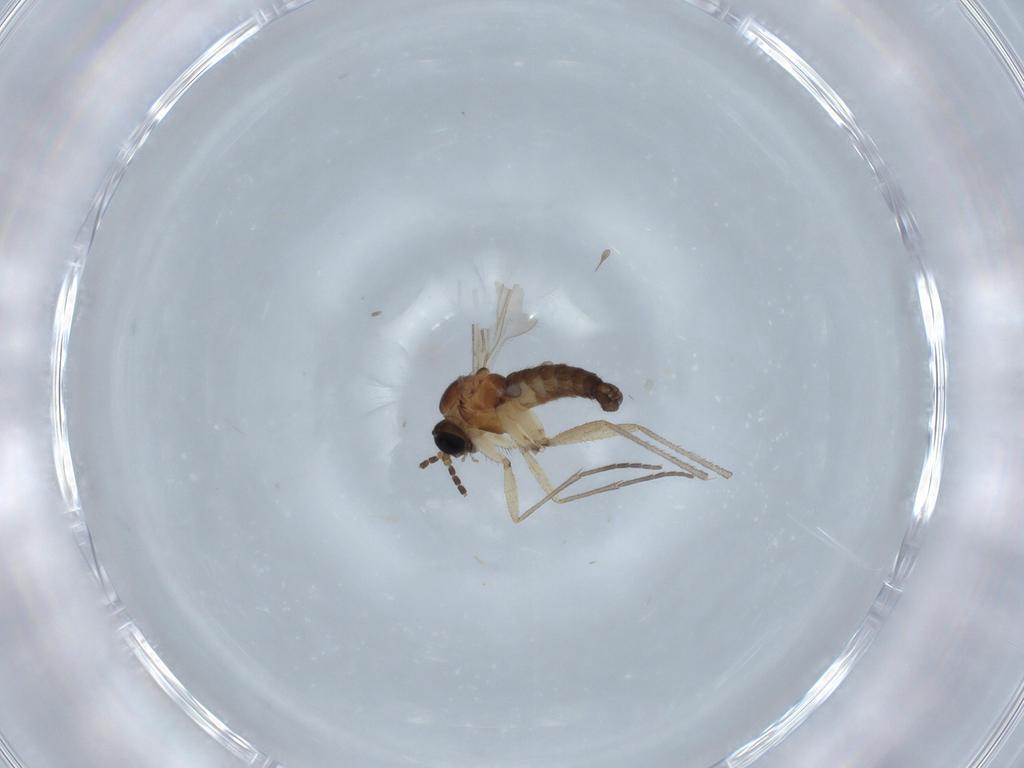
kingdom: Animalia
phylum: Arthropoda
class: Insecta
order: Diptera
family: Sciaridae
